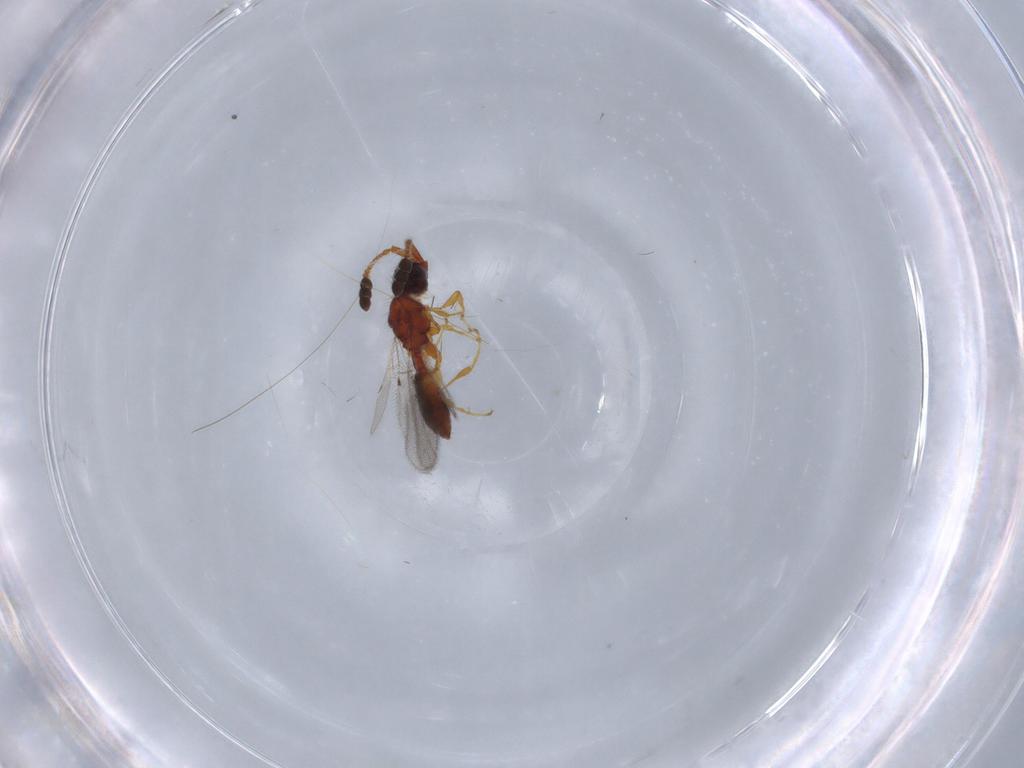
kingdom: Animalia
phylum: Arthropoda
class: Insecta
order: Hymenoptera
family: Diapriidae
